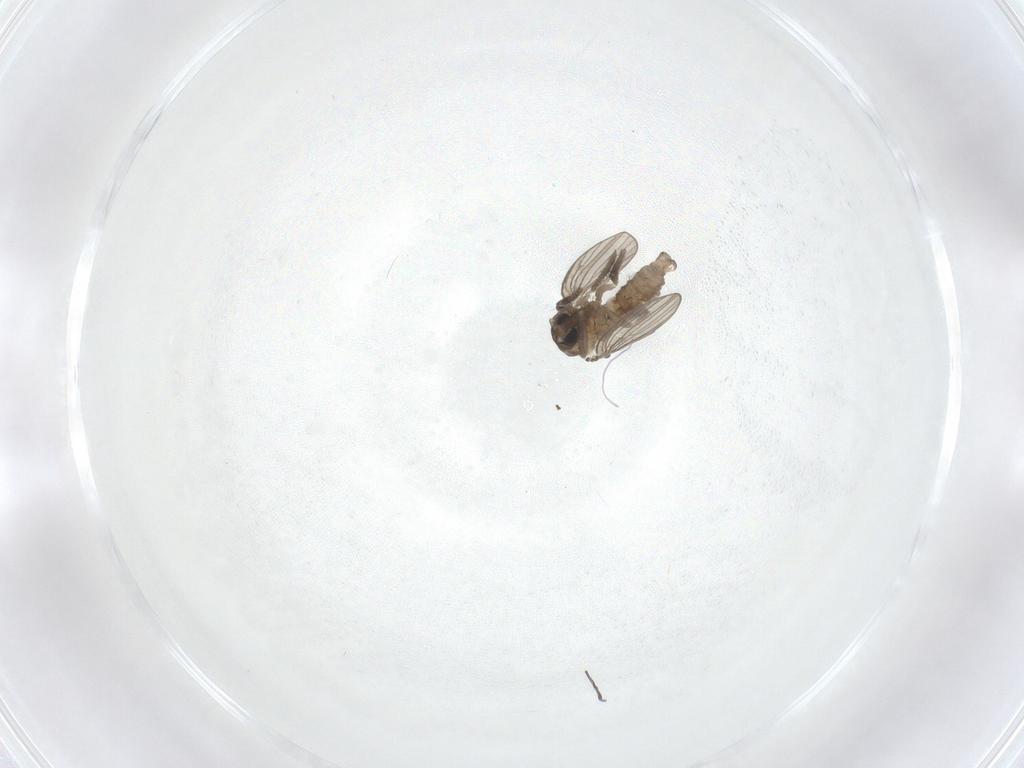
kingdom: Animalia
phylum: Arthropoda
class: Insecta
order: Diptera
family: Psychodidae
